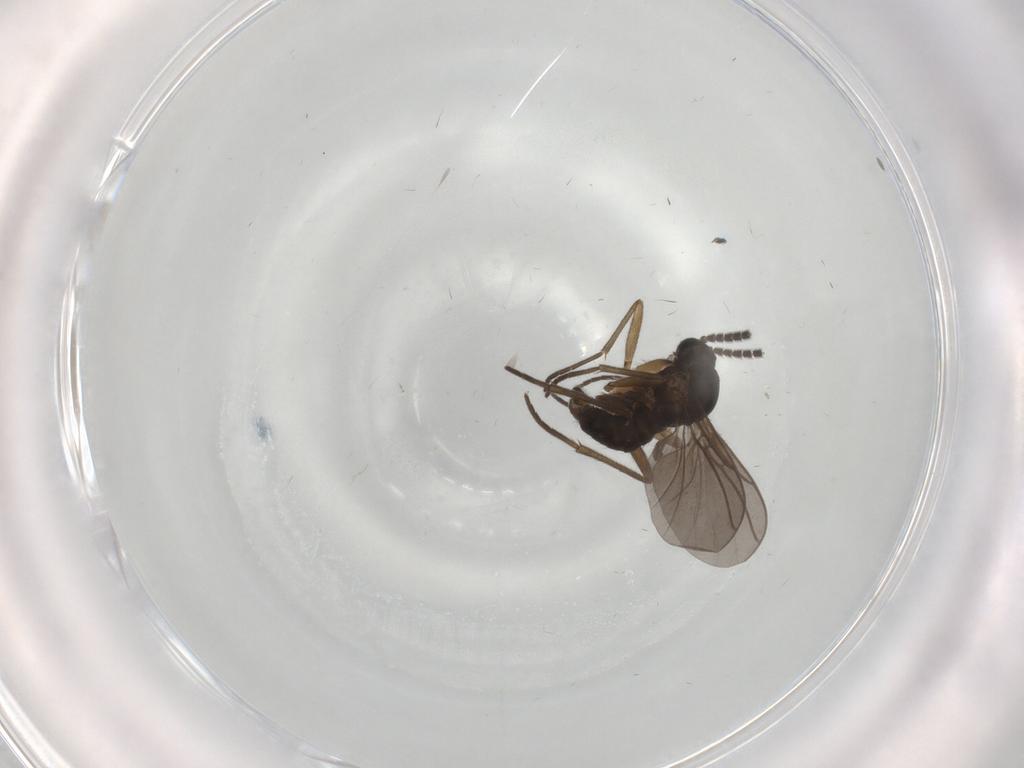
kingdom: Animalia
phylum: Arthropoda
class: Insecta
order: Diptera
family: Sciaridae
